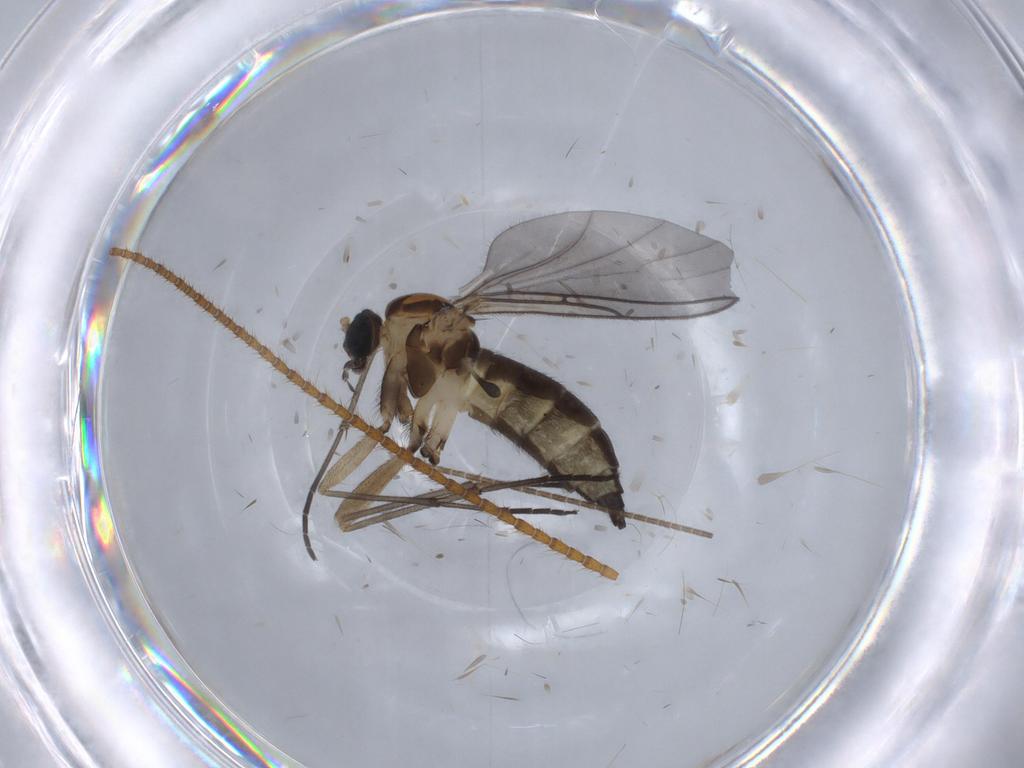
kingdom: Animalia
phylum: Arthropoda
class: Insecta
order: Diptera
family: Sciaridae
